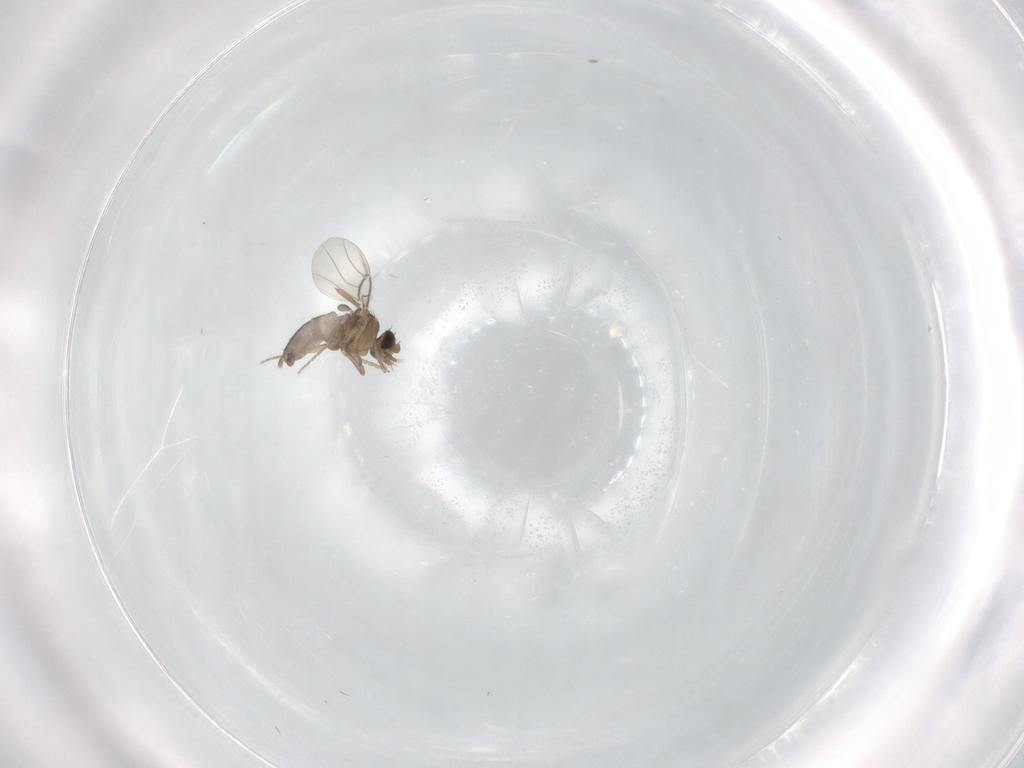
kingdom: Animalia
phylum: Arthropoda
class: Insecta
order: Diptera
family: Phoridae
